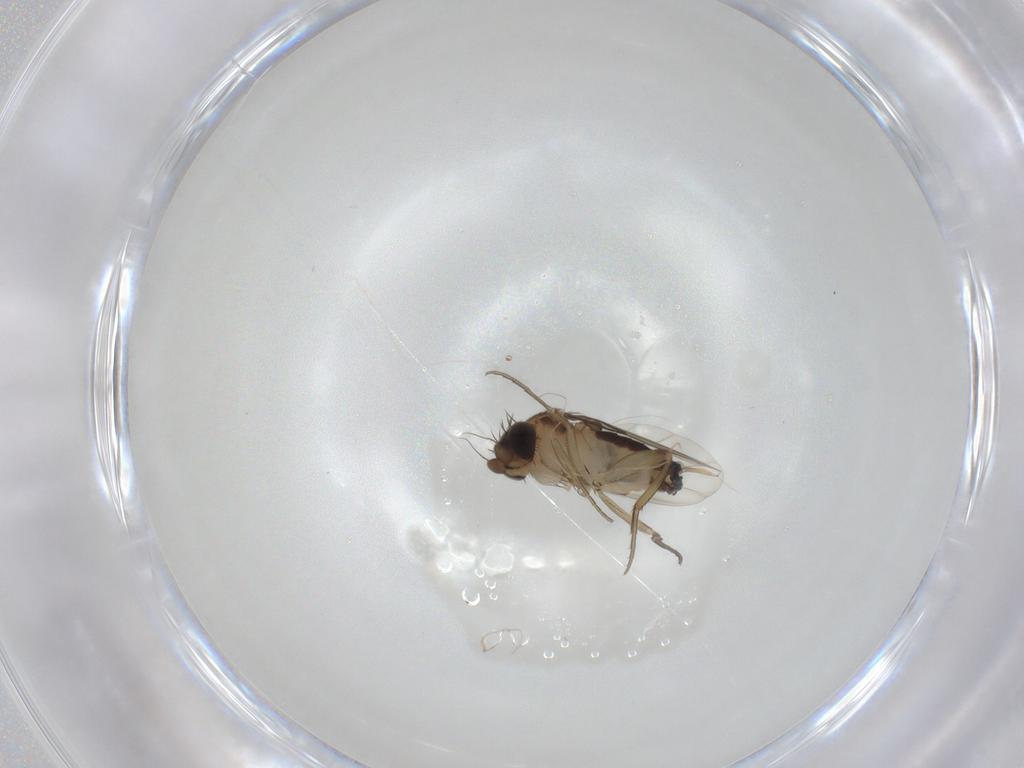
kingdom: Animalia
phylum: Arthropoda
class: Insecta
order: Diptera
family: Phoridae
